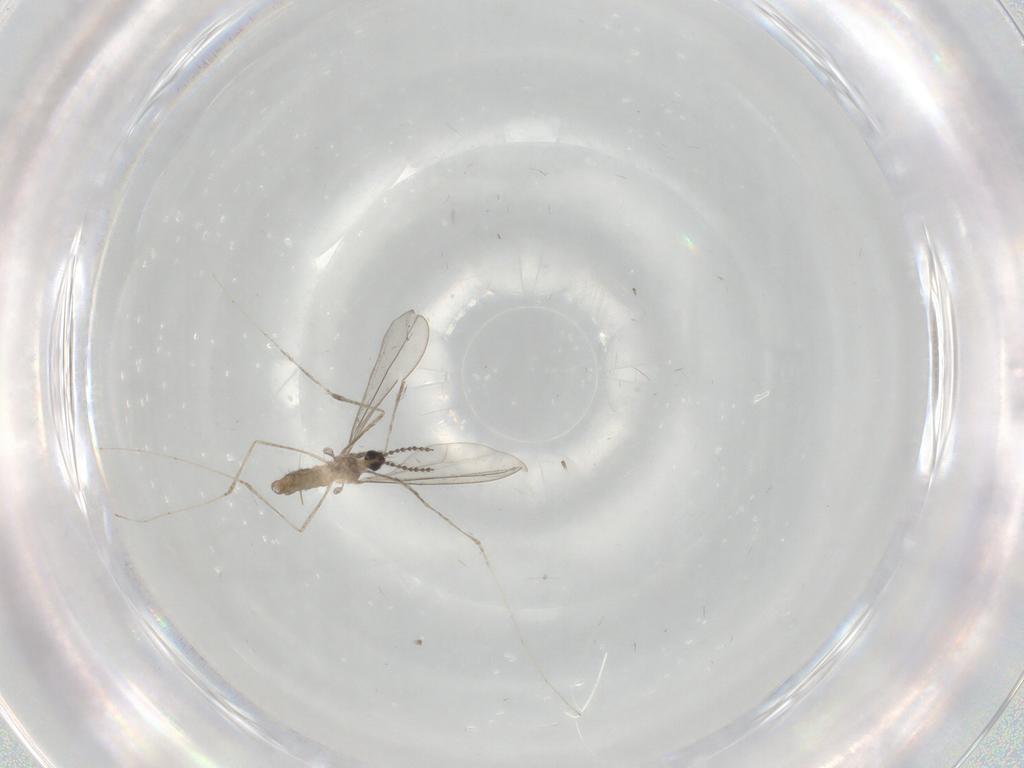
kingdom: Animalia
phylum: Arthropoda
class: Insecta
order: Diptera
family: Cecidomyiidae
